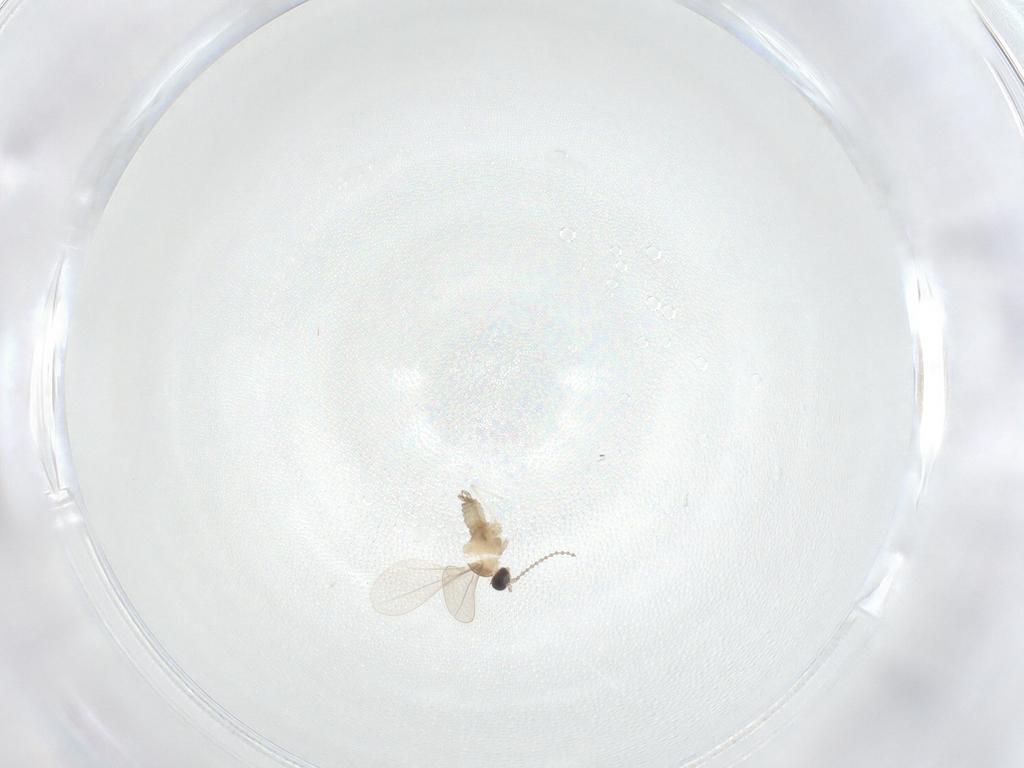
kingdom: Animalia
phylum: Arthropoda
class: Insecta
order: Diptera
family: Cecidomyiidae
